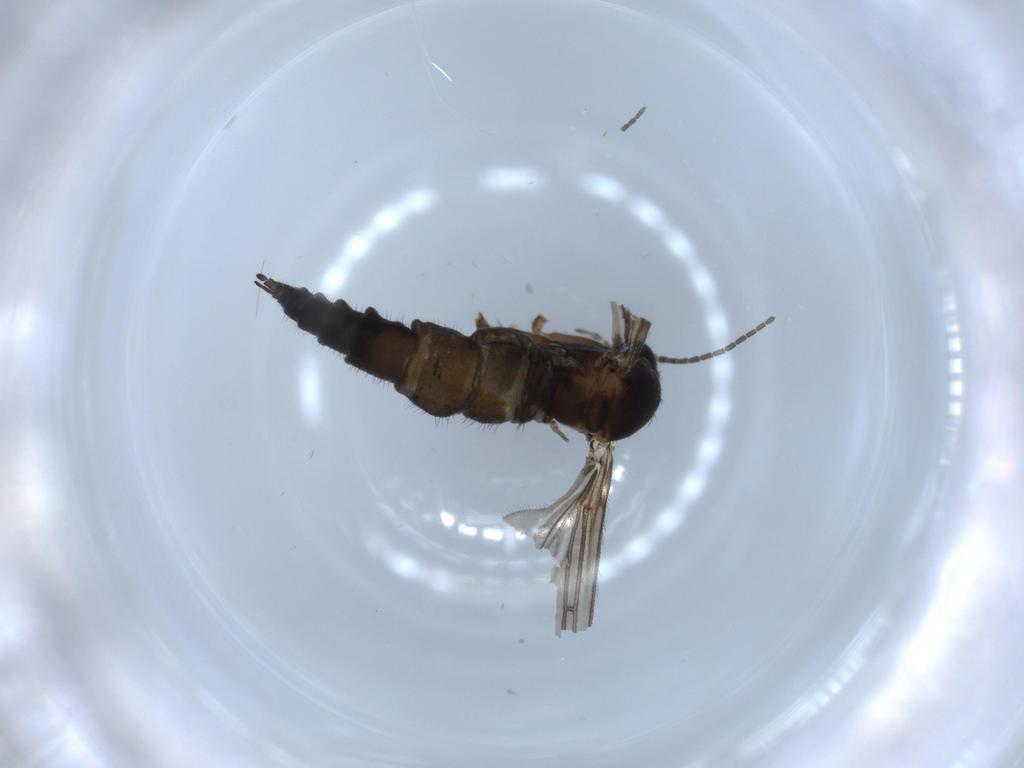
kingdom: Animalia
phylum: Arthropoda
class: Insecta
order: Diptera
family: Sciaridae
